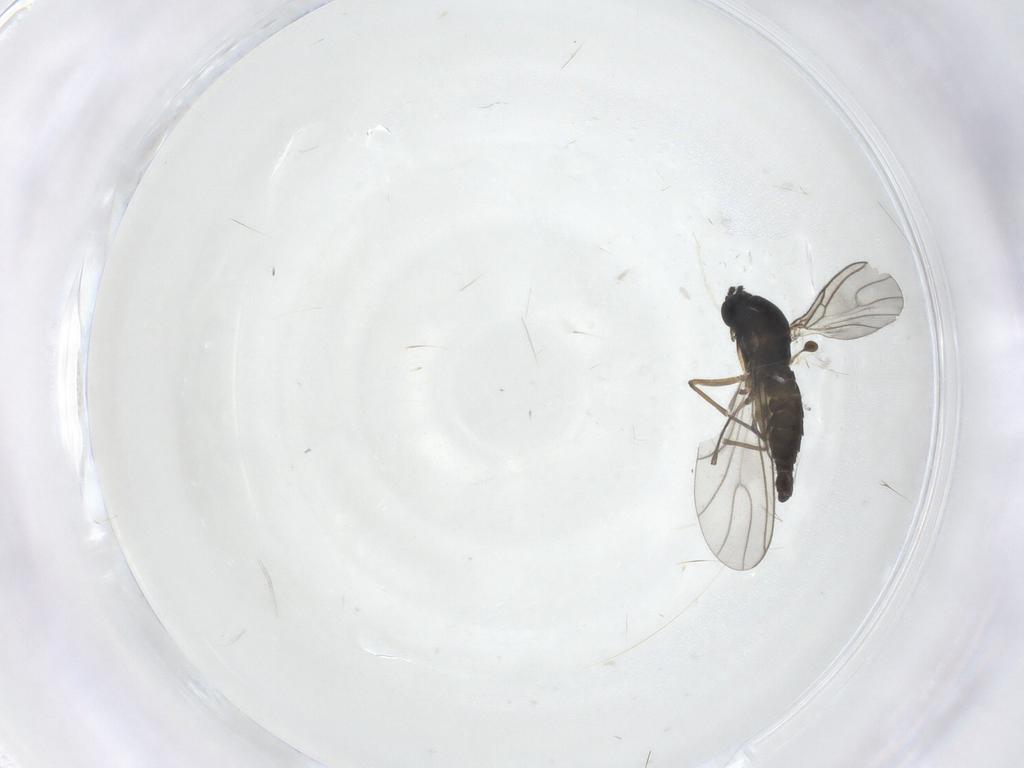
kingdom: Animalia
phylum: Arthropoda
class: Insecta
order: Diptera
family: Sciaridae
